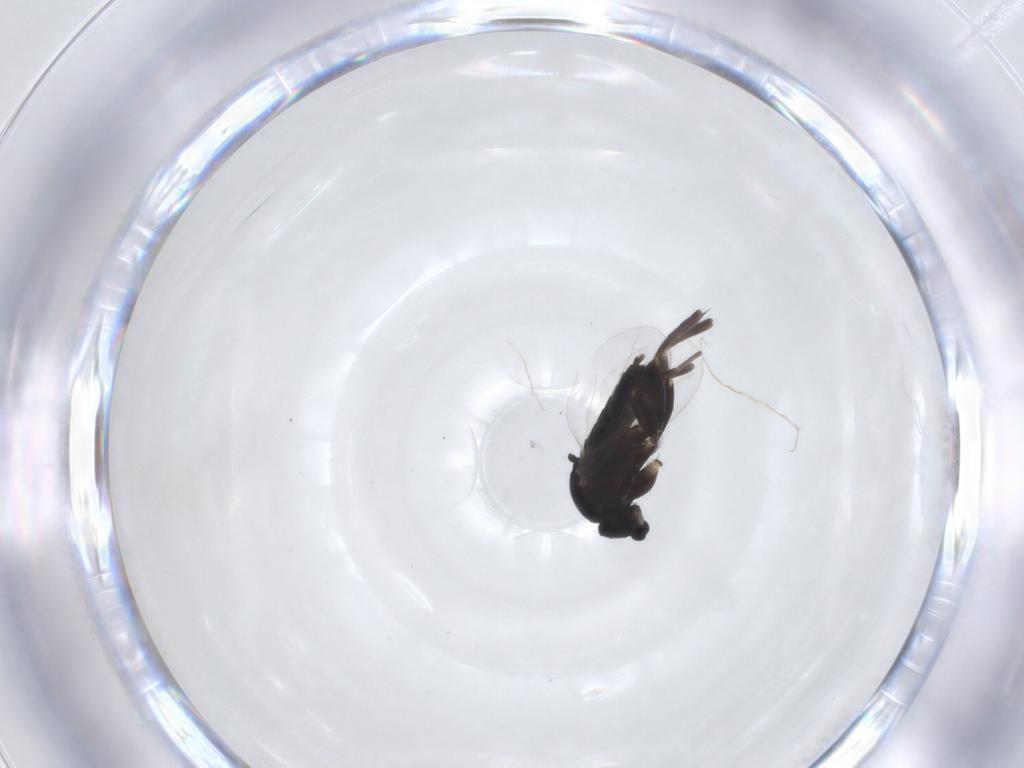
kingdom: Animalia
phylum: Arthropoda
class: Insecta
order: Diptera
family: Phoridae
